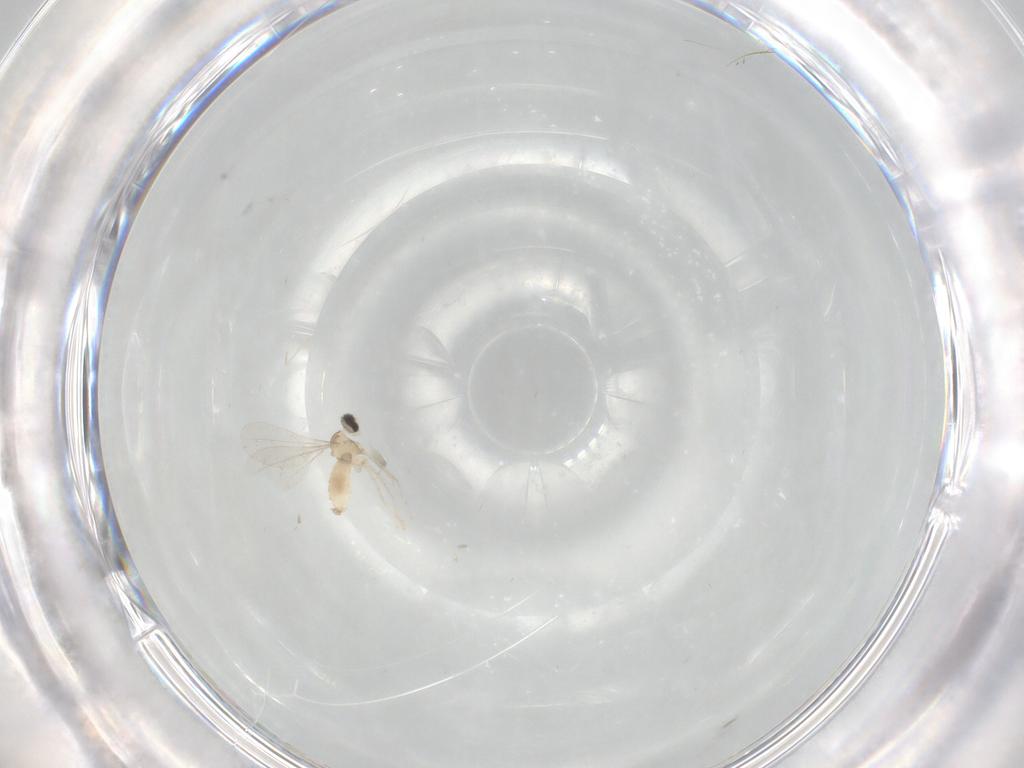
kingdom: Animalia
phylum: Arthropoda
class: Insecta
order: Diptera
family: Cecidomyiidae
